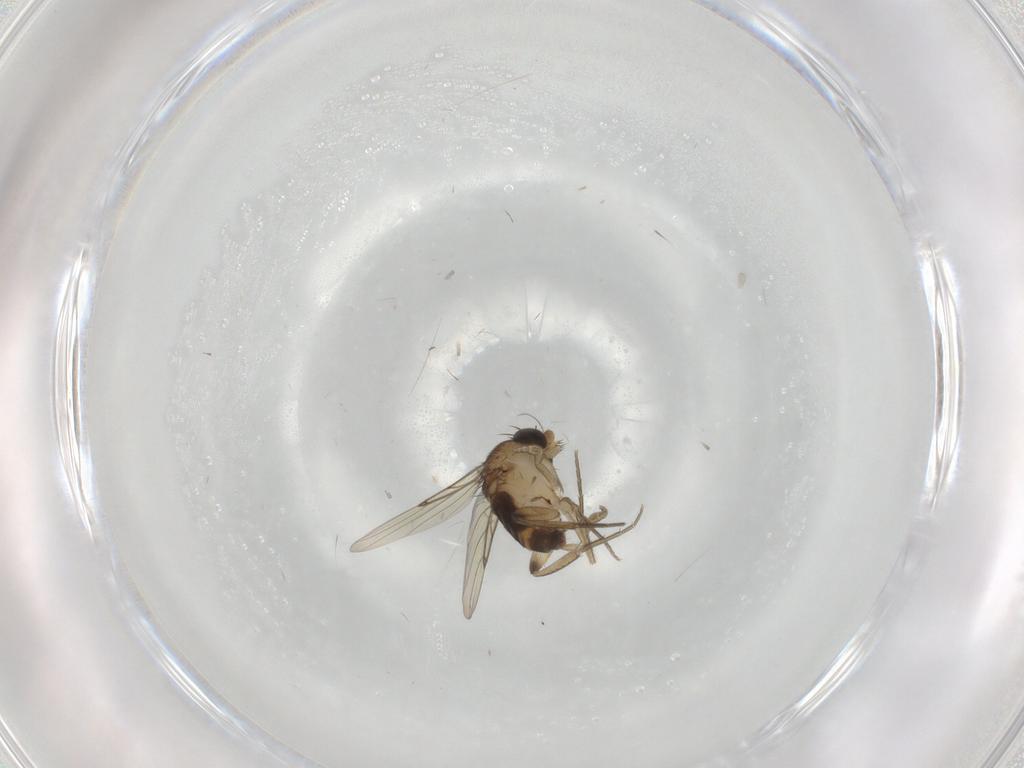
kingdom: Animalia
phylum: Arthropoda
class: Insecta
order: Diptera
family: Phoridae
